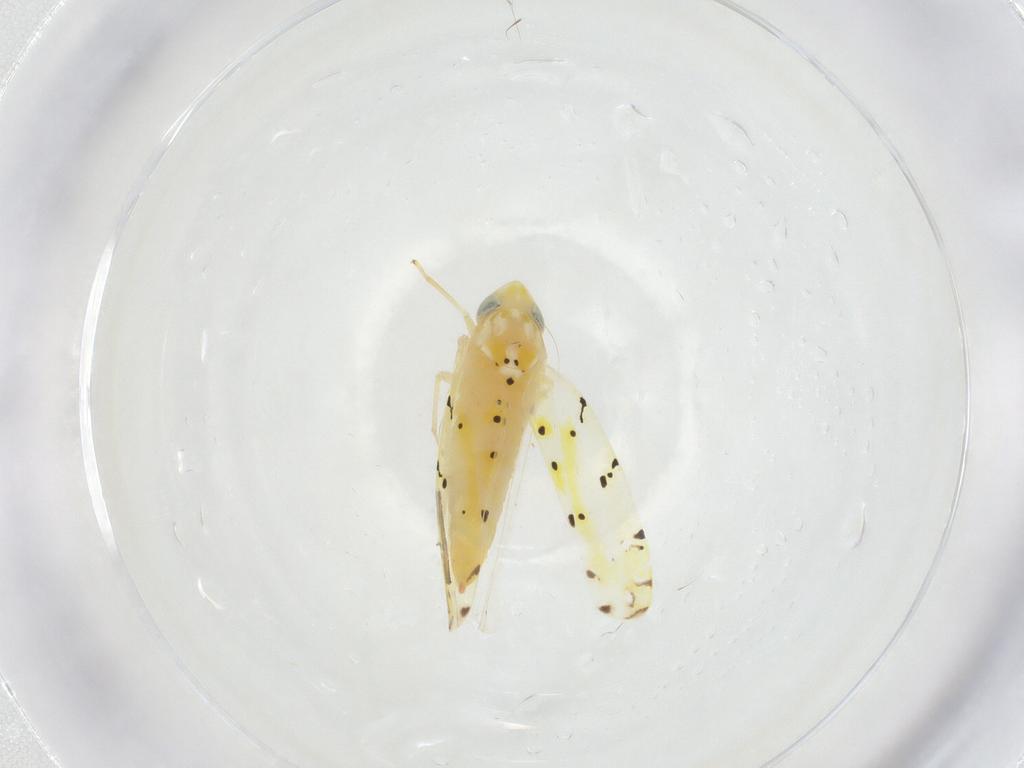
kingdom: Animalia
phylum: Arthropoda
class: Insecta
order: Hemiptera
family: Cicadellidae
